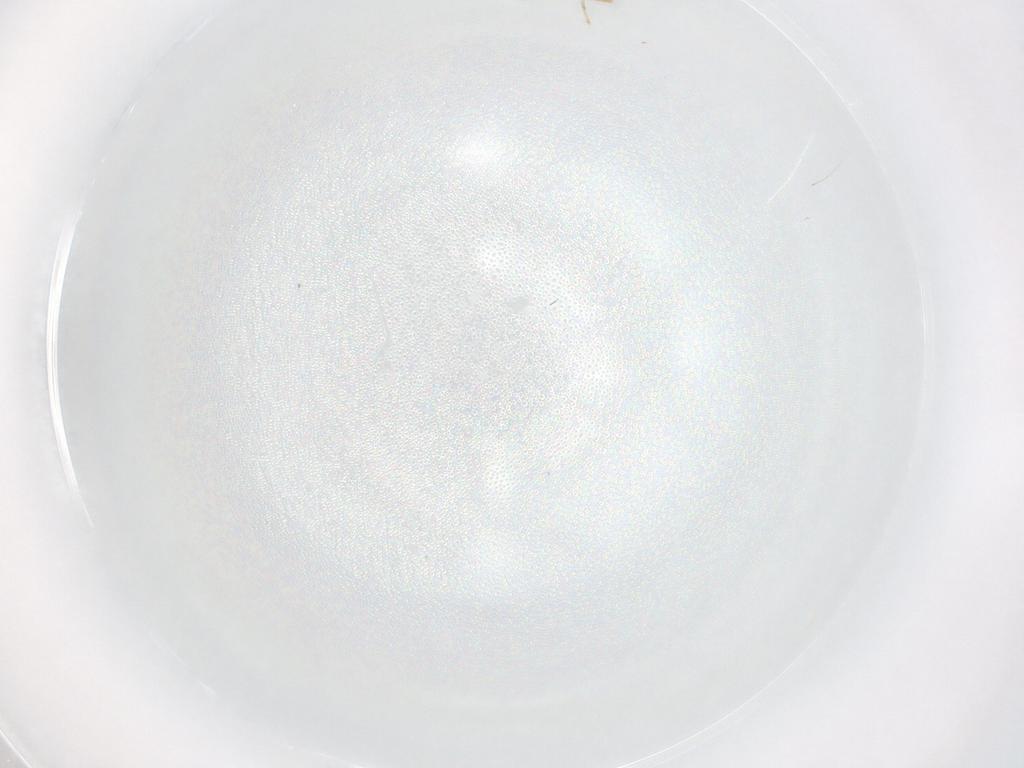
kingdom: Animalia
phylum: Arthropoda
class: Insecta
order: Diptera
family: Cecidomyiidae
